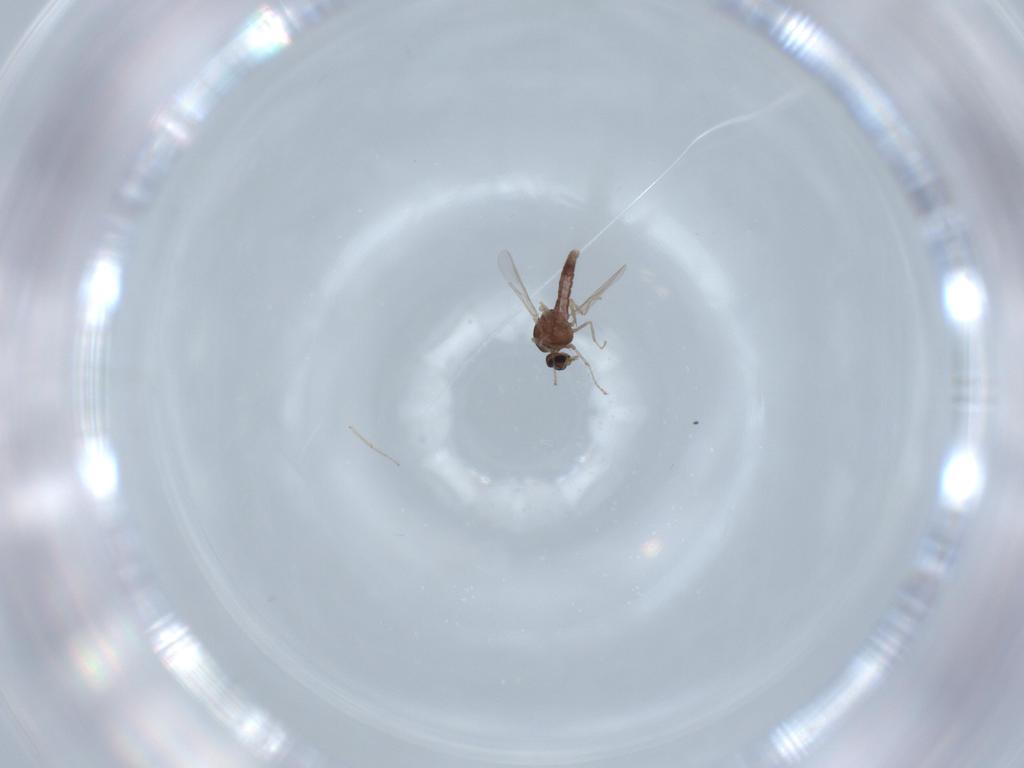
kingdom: Animalia
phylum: Arthropoda
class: Insecta
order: Diptera
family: Ceratopogonidae
